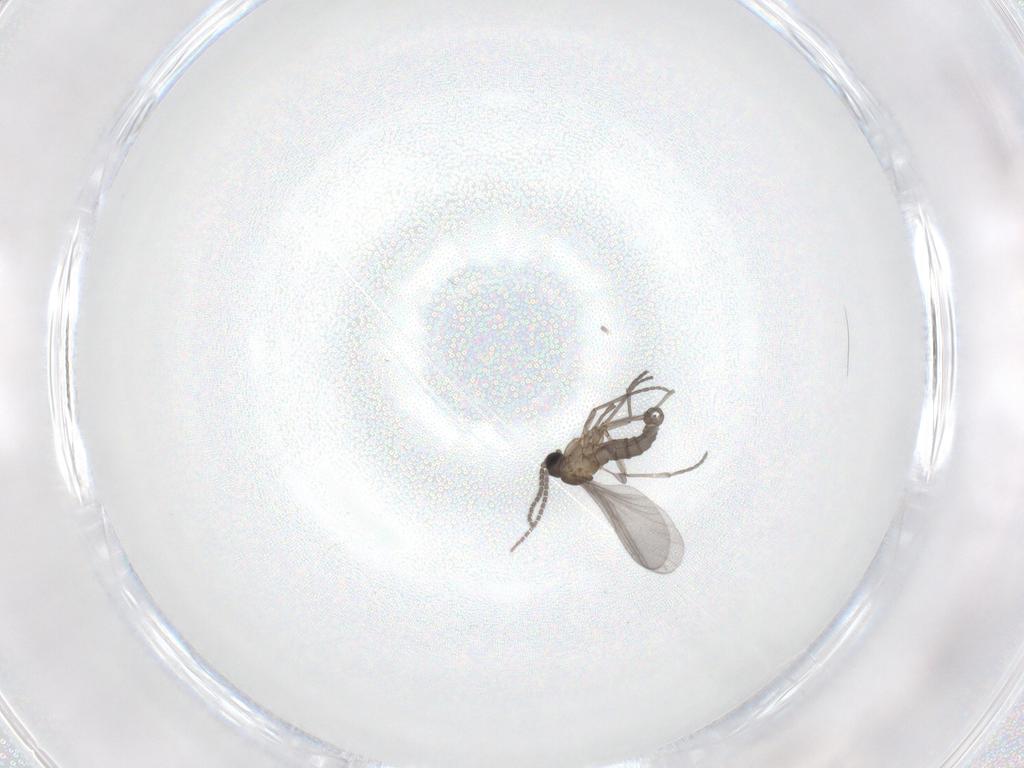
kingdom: Animalia
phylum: Arthropoda
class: Insecta
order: Diptera
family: Sciaridae
